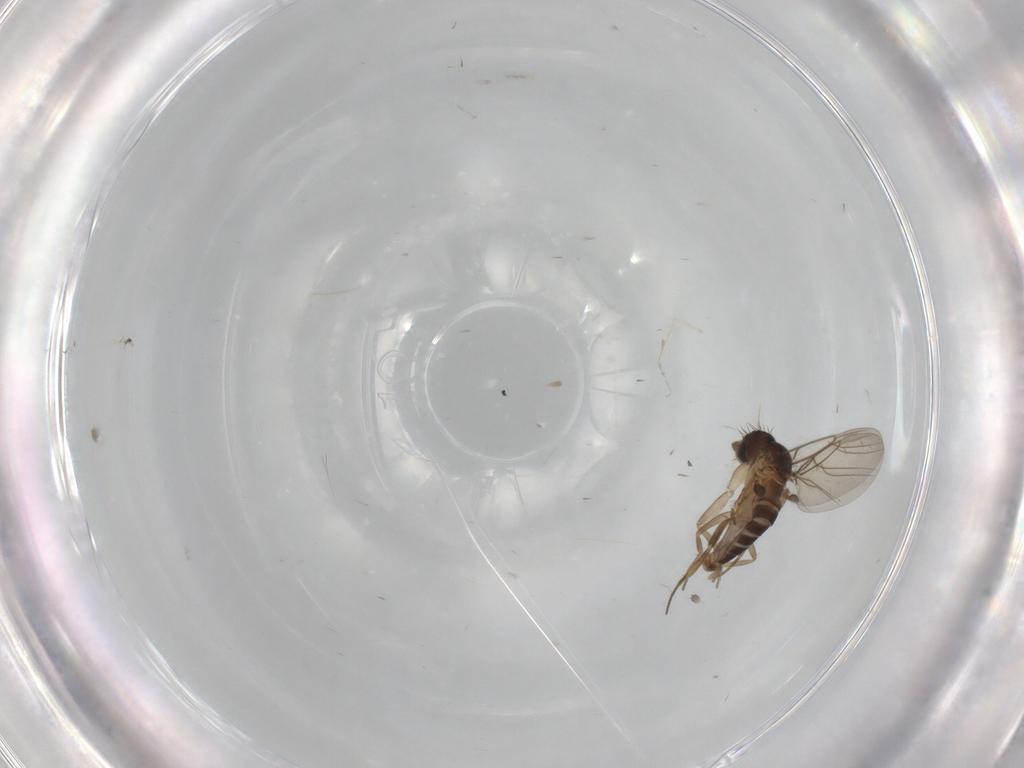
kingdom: Animalia
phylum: Arthropoda
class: Insecta
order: Diptera
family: Phoridae
